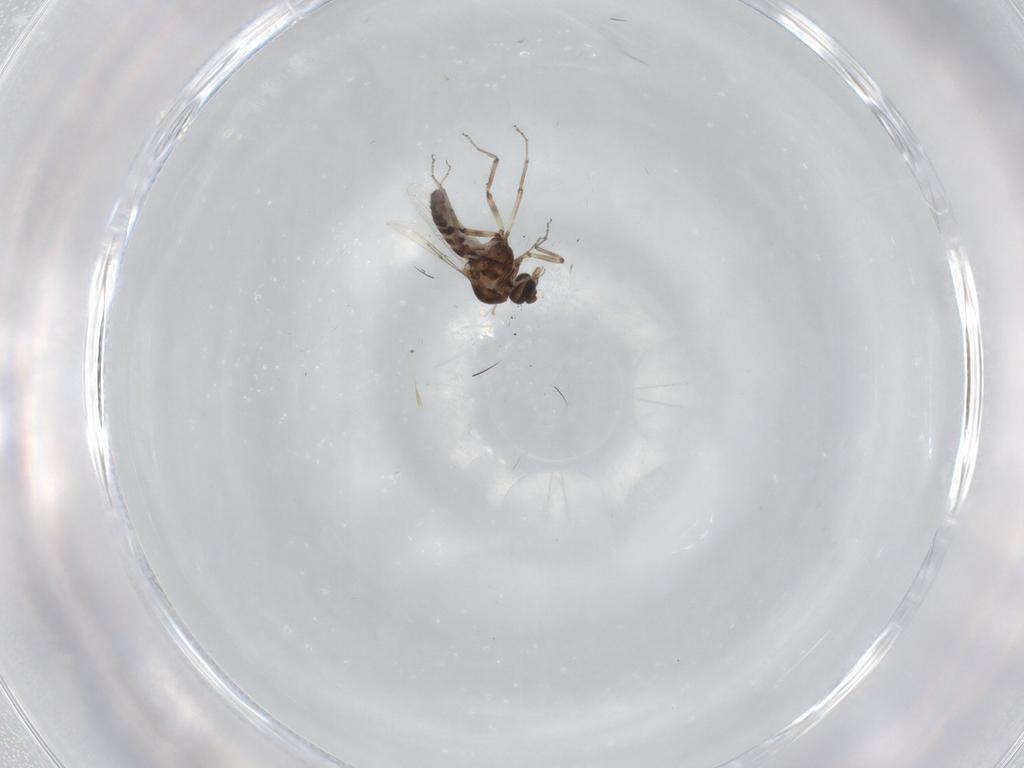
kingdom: Animalia
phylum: Arthropoda
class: Insecta
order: Diptera
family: Ceratopogonidae
